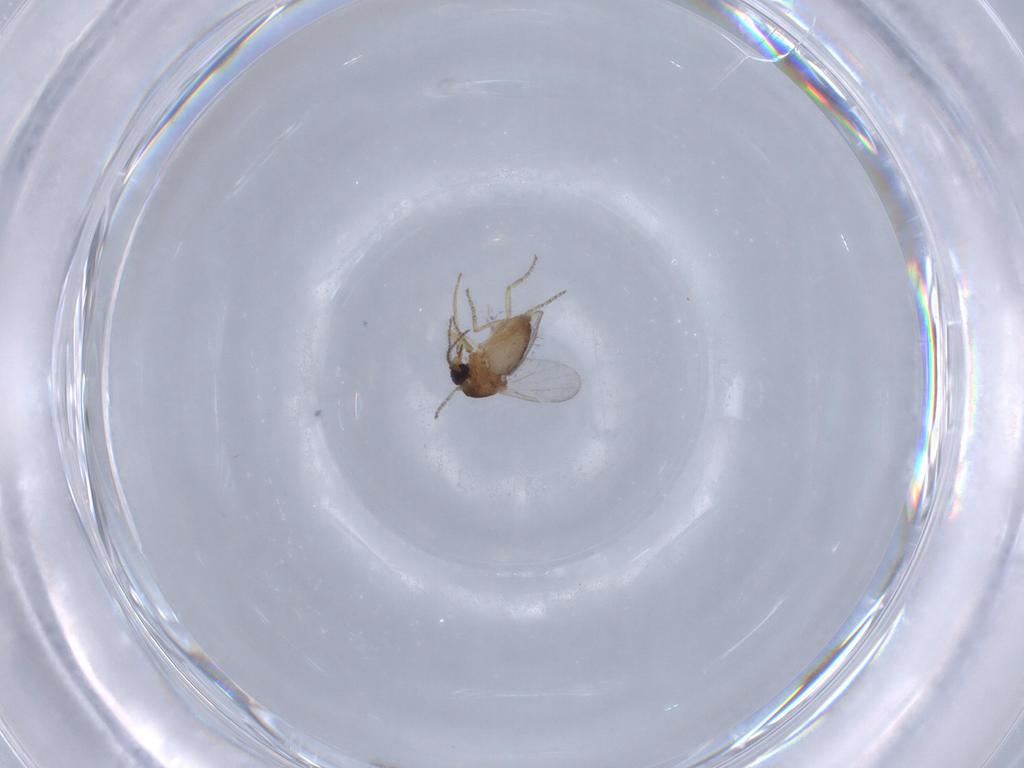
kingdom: Animalia
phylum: Arthropoda
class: Insecta
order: Diptera
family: Ceratopogonidae
